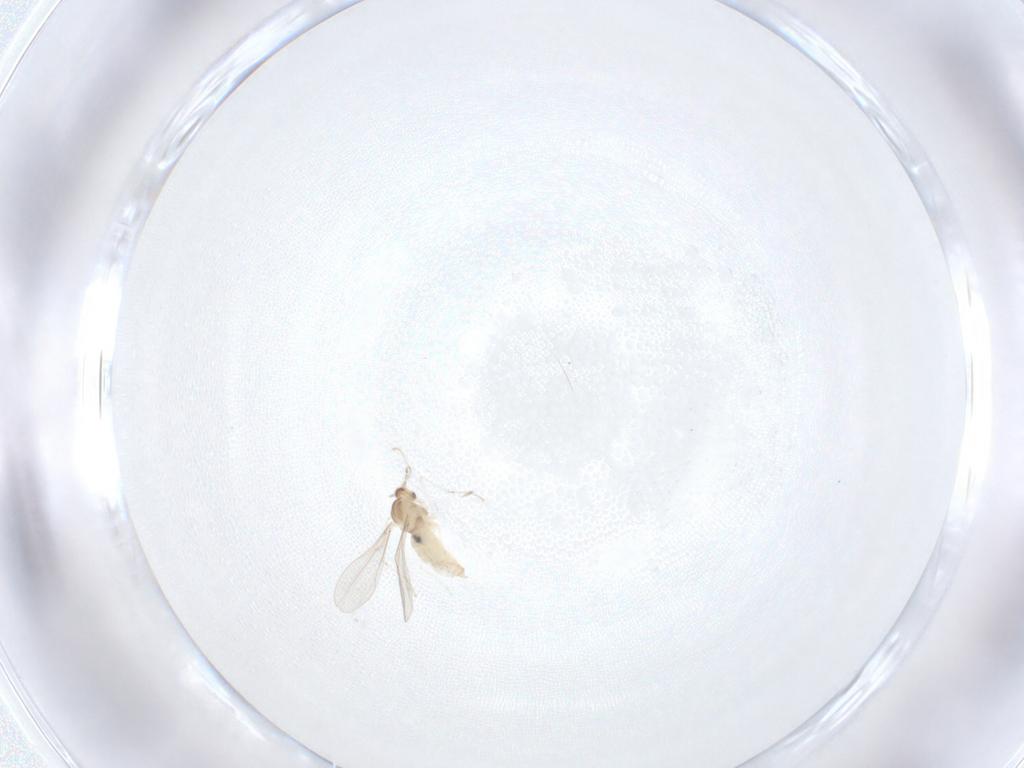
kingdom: Animalia
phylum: Arthropoda
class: Insecta
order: Diptera
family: Cecidomyiidae
